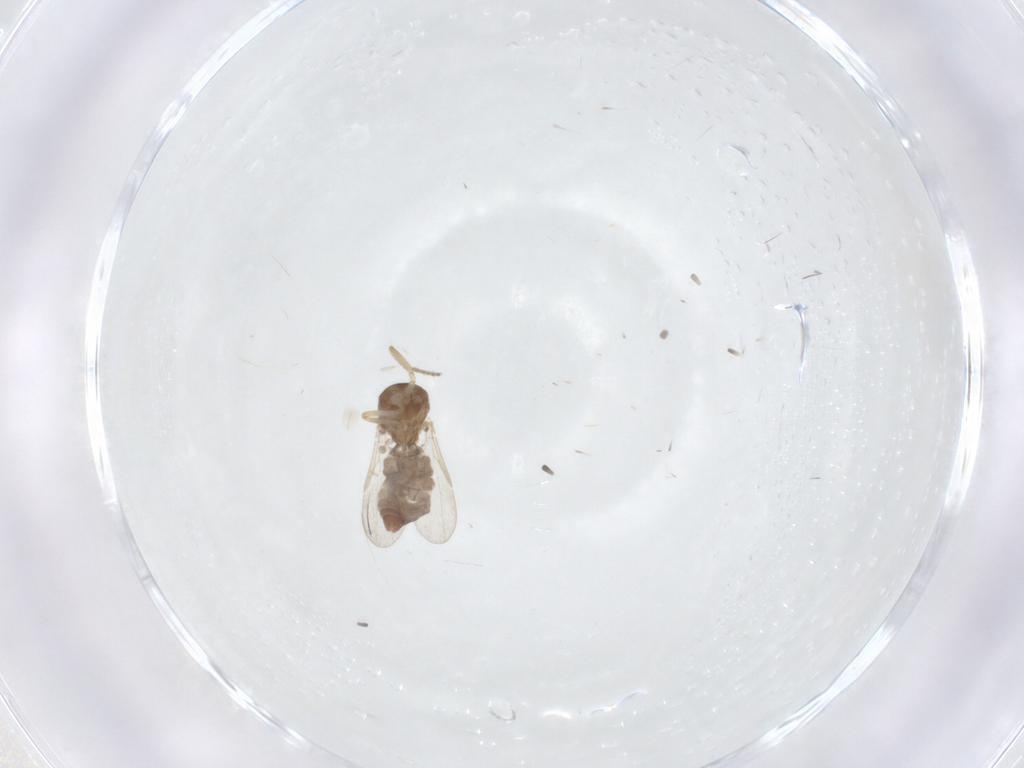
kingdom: Animalia
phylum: Arthropoda
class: Insecta
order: Diptera
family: Ceratopogonidae
